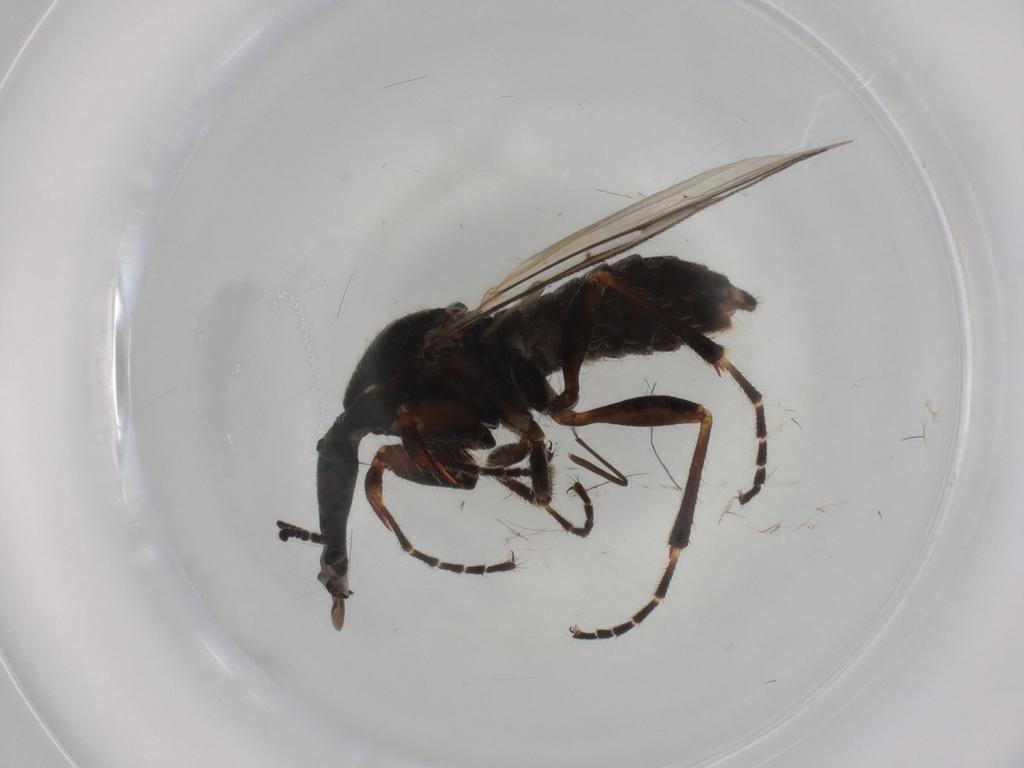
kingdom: Animalia
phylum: Arthropoda
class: Insecta
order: Diptera
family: Bibionidae
